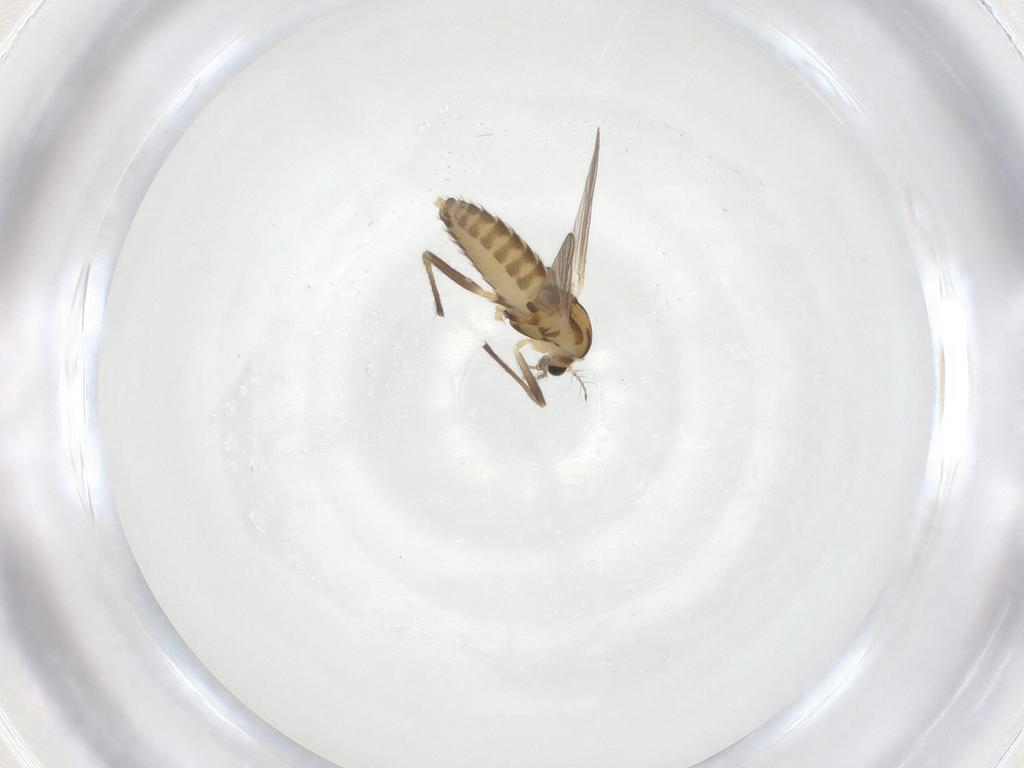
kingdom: Animalia
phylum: Arthropoda
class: Insecta
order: Diptera
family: Chironomidae
